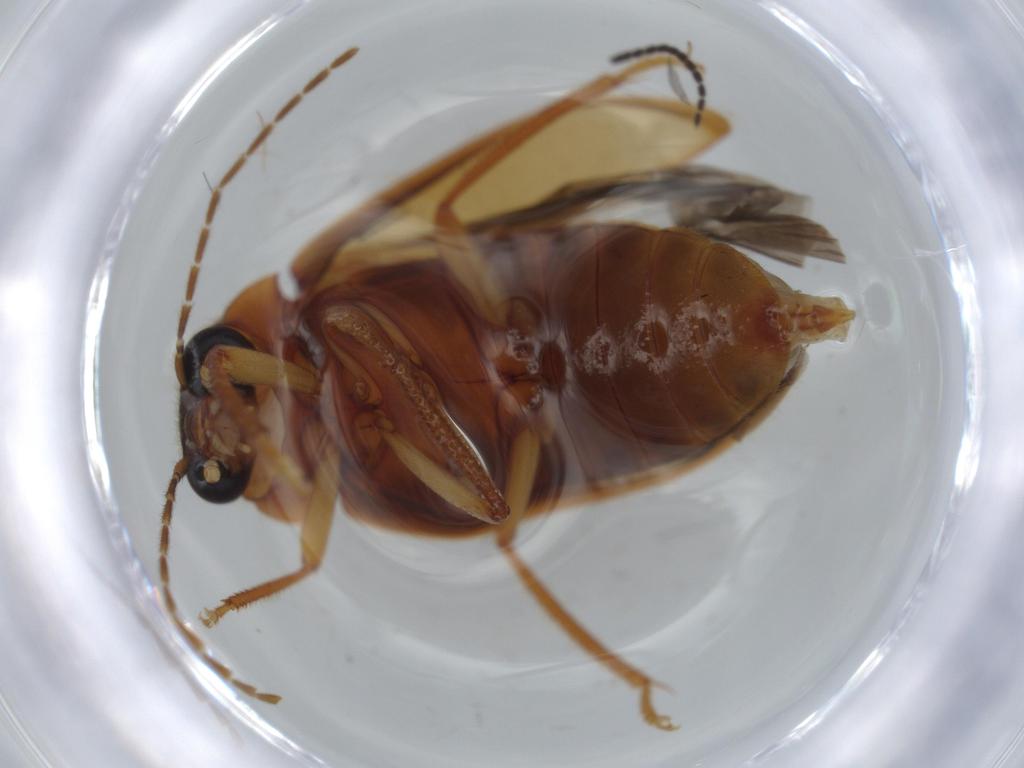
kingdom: Animalia
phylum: Arthropoda
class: Insecta
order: Coleoptera
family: Ptilodactylidae
